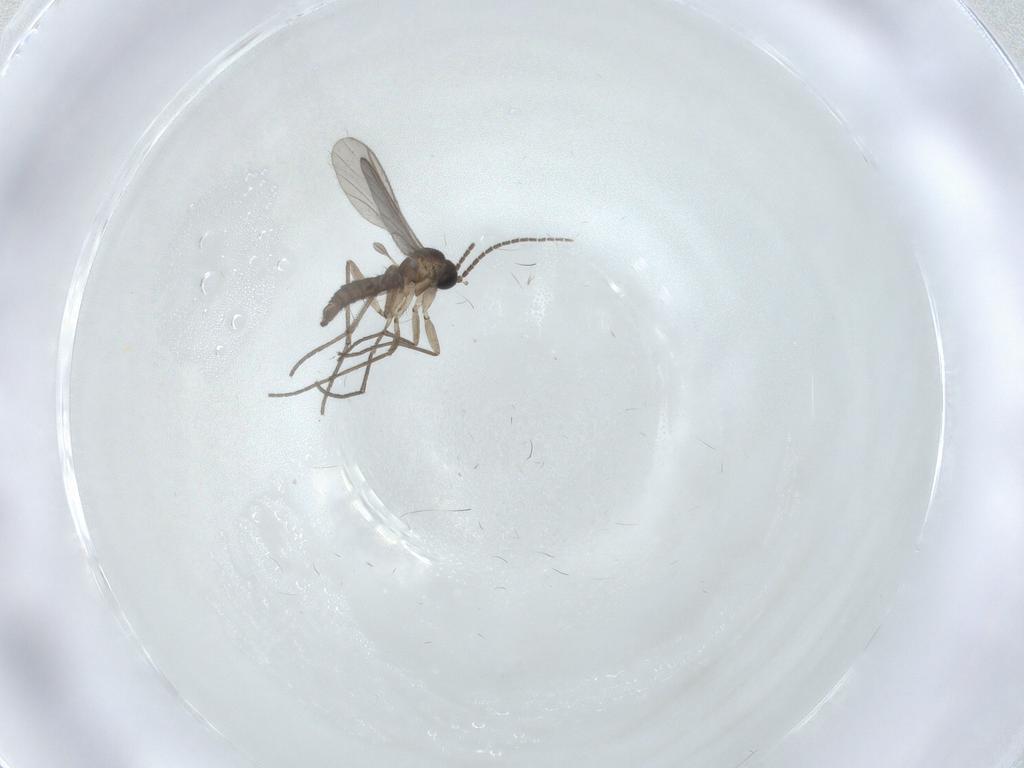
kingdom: Animalia
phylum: Arthropoda
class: Insecta
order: Diptera
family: Sciaridae
